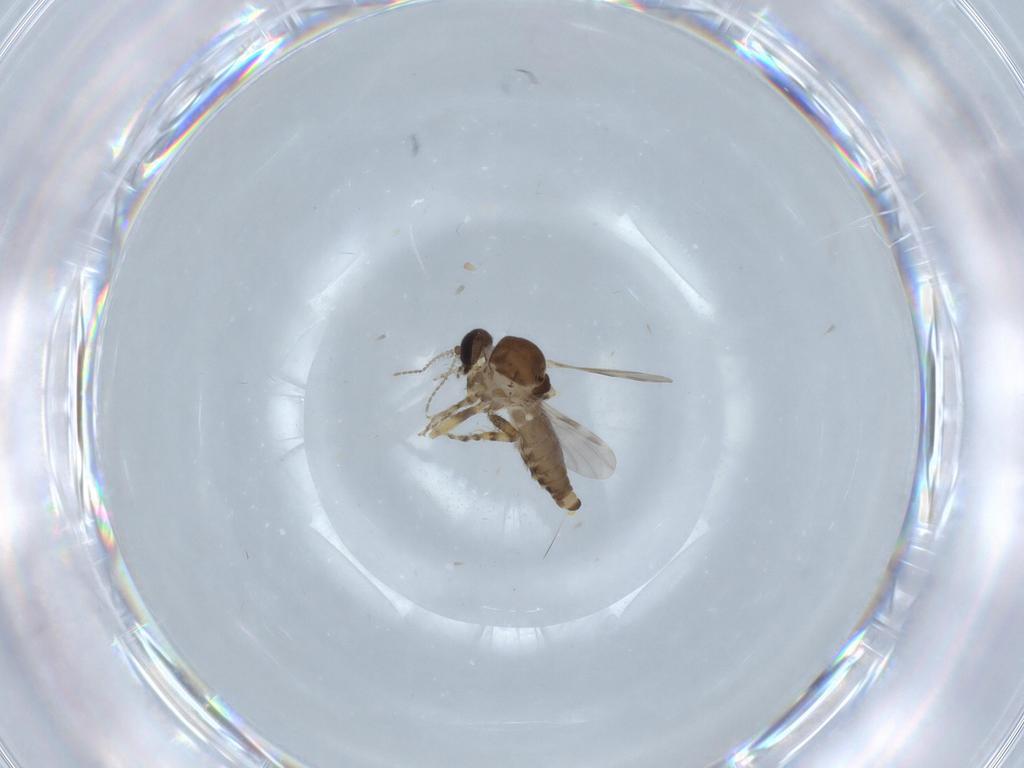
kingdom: Animalia
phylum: Arthropoda
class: Insecta
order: Diptera
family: Ceratopogonidae
